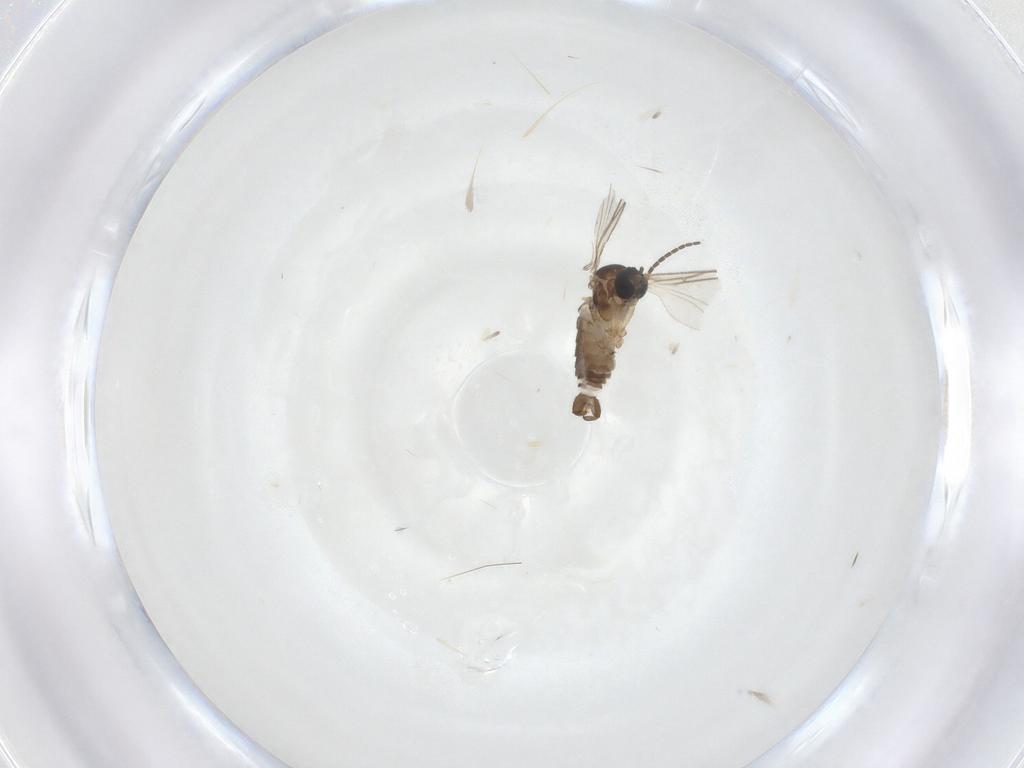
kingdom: Animalia
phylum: Arthropoda
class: Insecta
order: Diptera
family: Sciaridae
